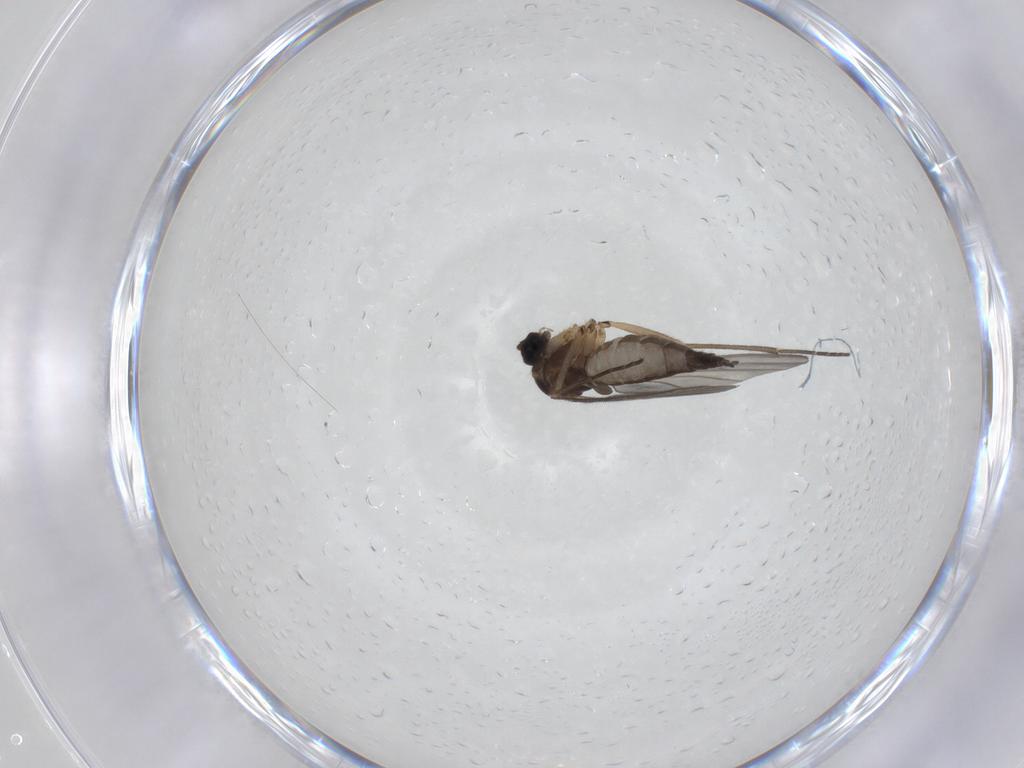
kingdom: Animalia
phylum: Arthropoda
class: Insecta
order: Diptera
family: Sciaridae
